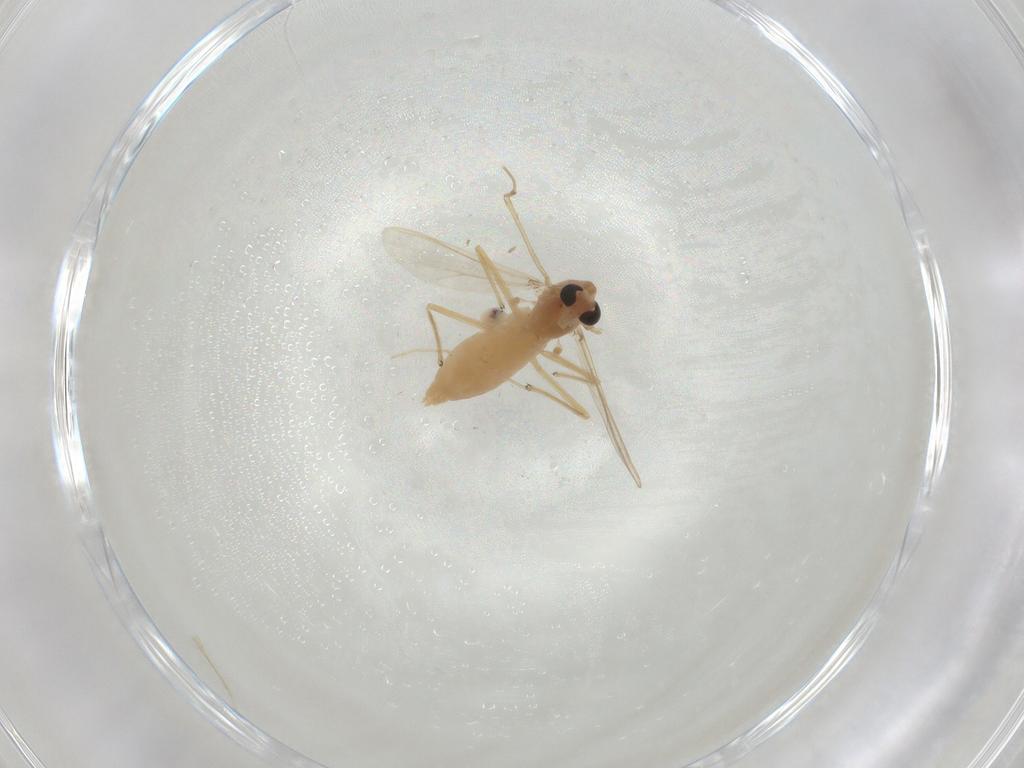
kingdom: Animalia
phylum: Arthropoda
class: Insecta
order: Diptera
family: Chironomidae
